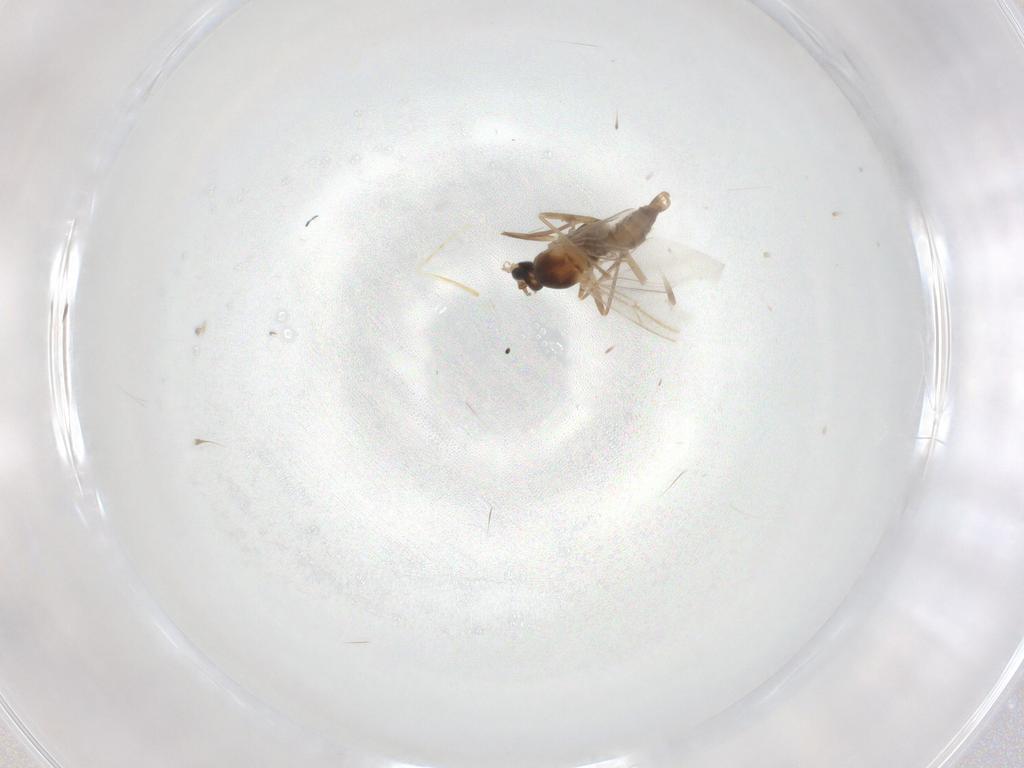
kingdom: Animalia
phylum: Arthropoda
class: Insecta
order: Diptera
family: Cecidomyiidae
